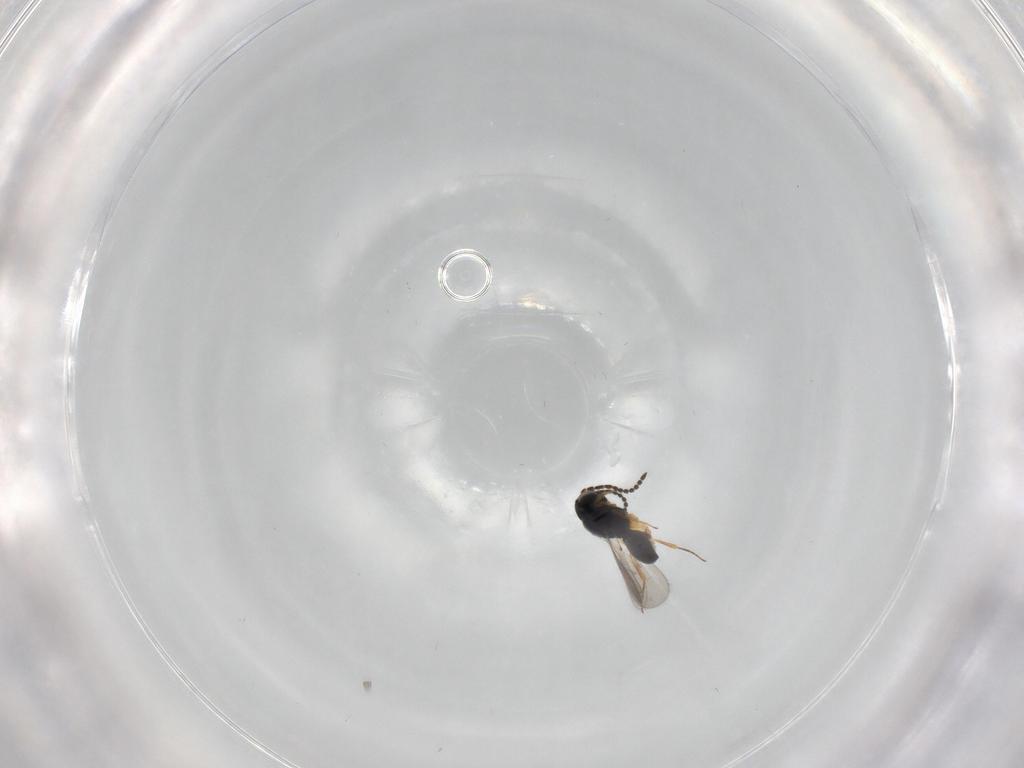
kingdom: Animalia
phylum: Arthropoda
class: Insecta
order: Hymenoptera
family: Scelionidae
